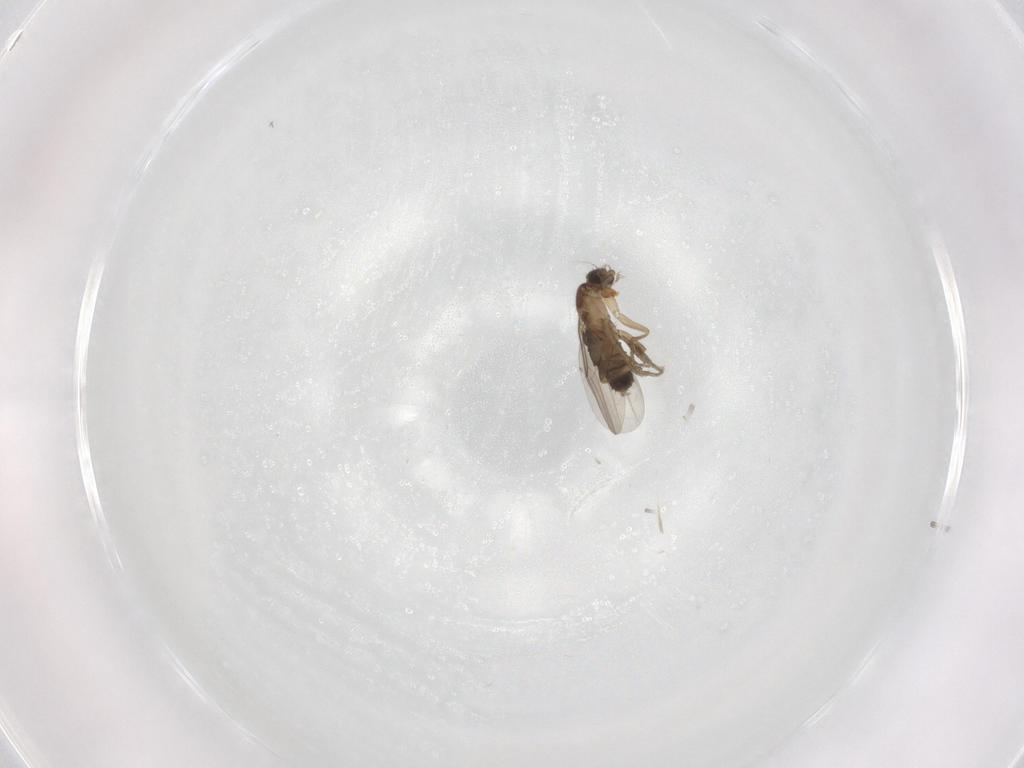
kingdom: Animalia
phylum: Arthropoda
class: Insecta
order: Diptera
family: Phoridae
